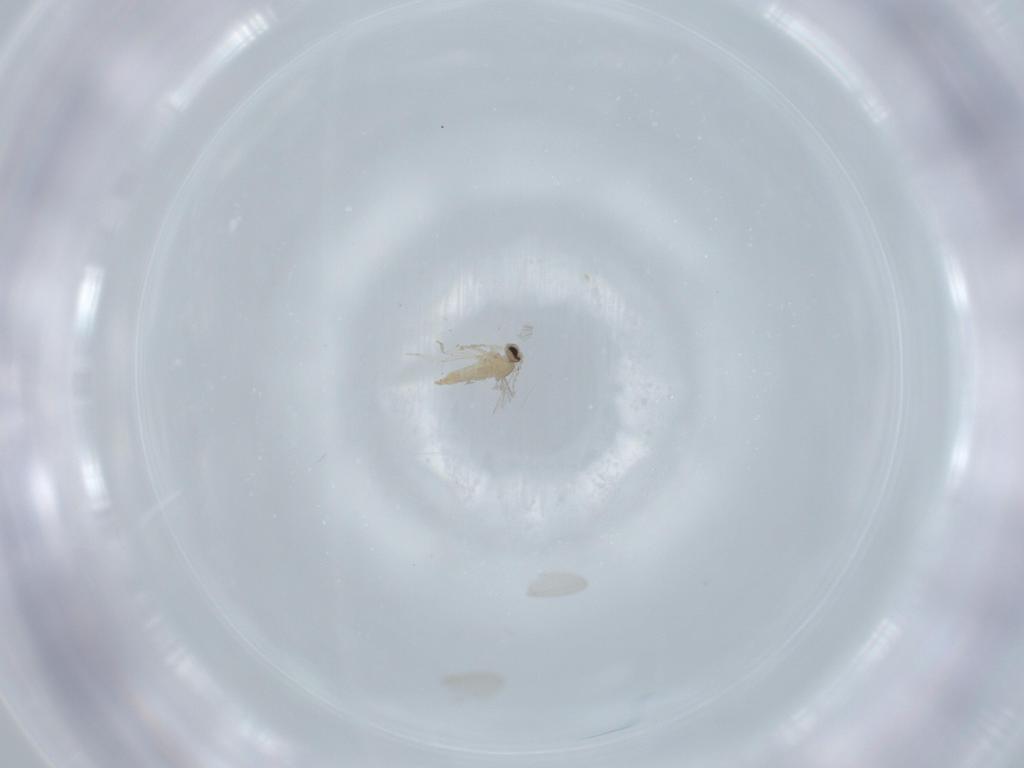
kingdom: Animalia
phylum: Arthropoda
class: Insecta
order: Diptera
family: Cecidomyiidae
